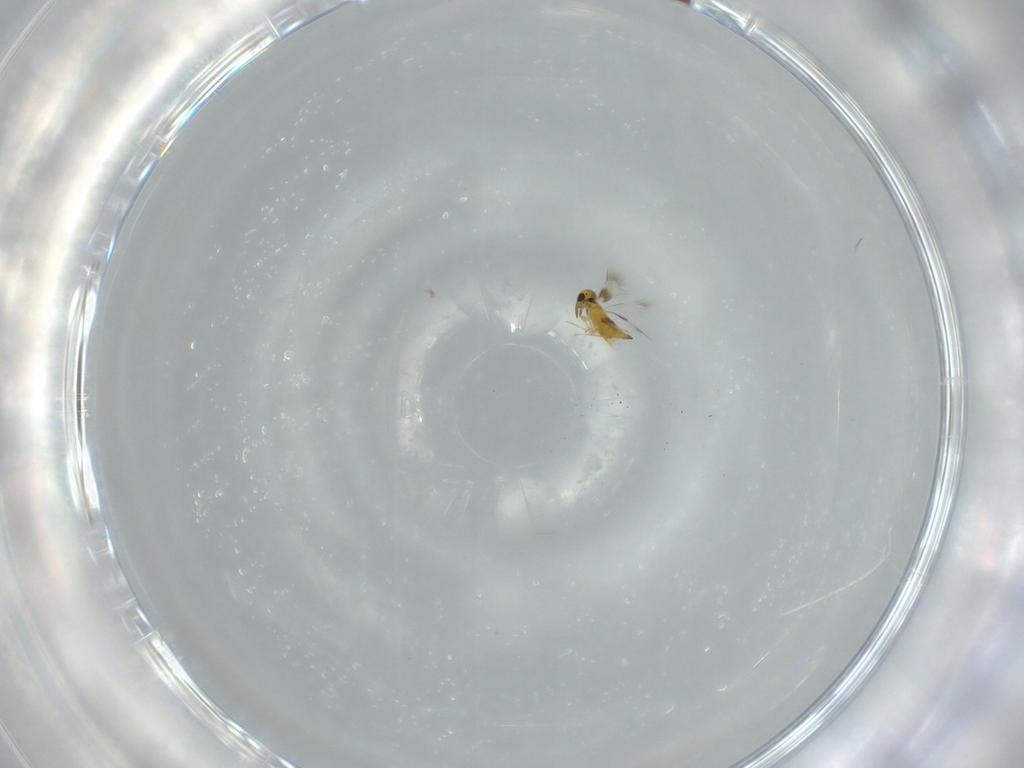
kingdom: Animalia
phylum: Arthropoda
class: Insecta
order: Hymenoptera
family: Signiphoridae
